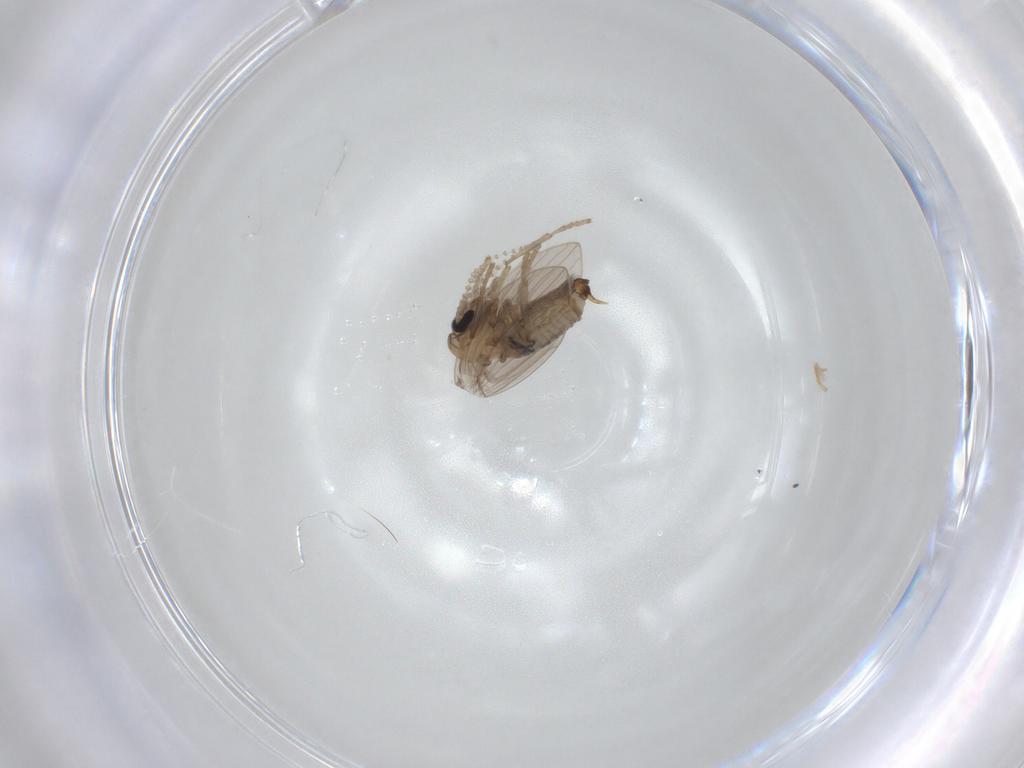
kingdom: Animalia
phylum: Arthropoda
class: Insecta
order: Diptera
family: Psychodidae
